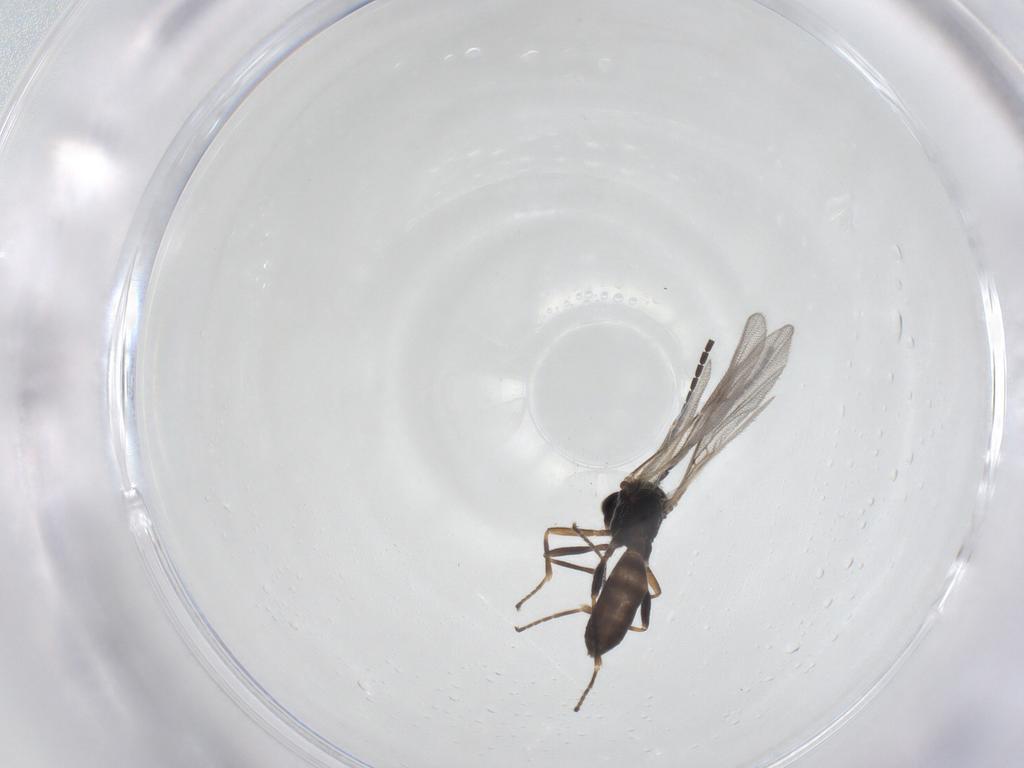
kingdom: Animalia
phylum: Arthropoda
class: Insecta
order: Hymenoptera
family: Braconidae
